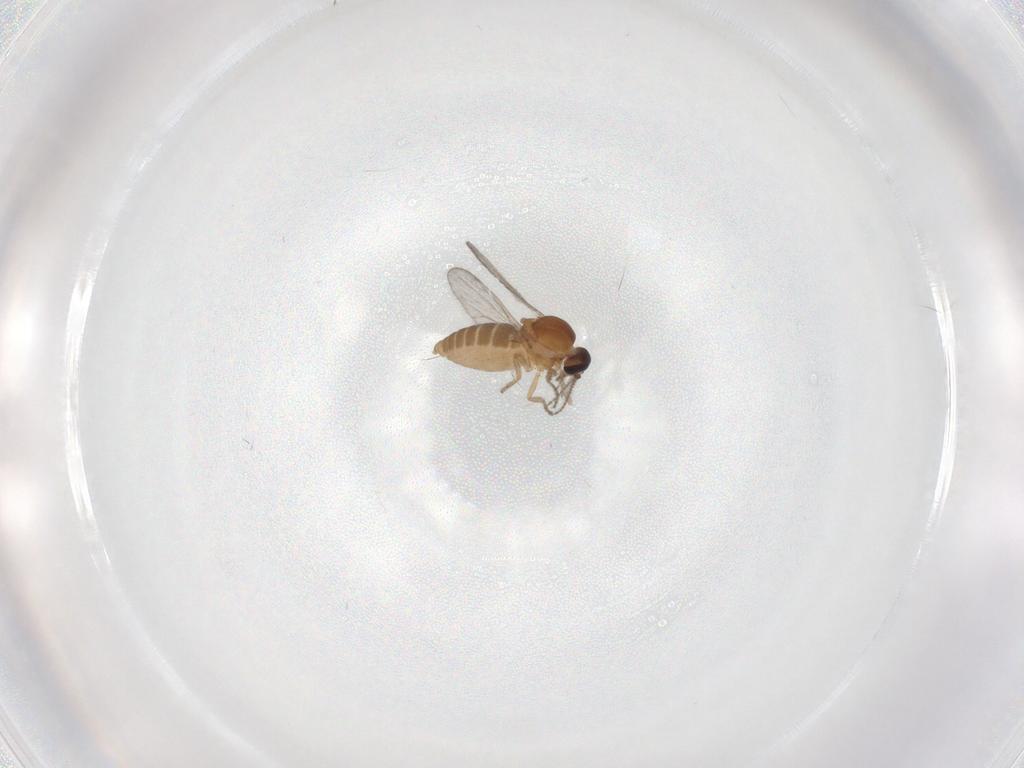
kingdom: Animalia
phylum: Arthropoda
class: Insecta
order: Diptera
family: Ceratopogonidae
